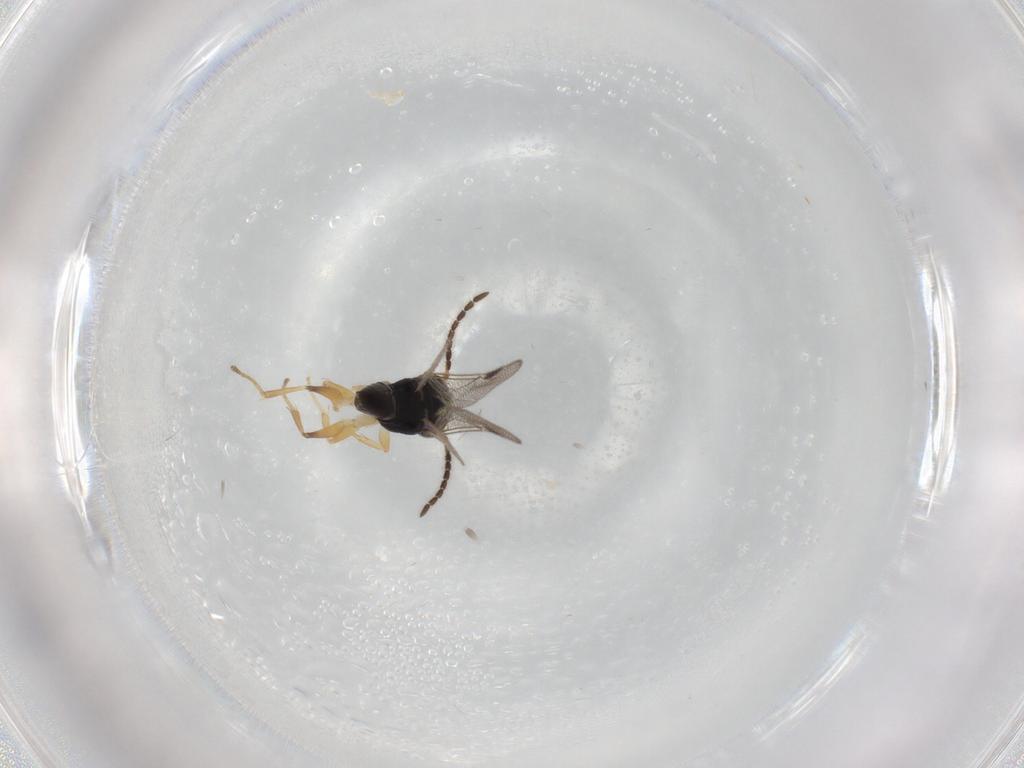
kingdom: Animalia
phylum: Arthropoda
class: Insecta
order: Hymenoptera
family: Dryinidae
